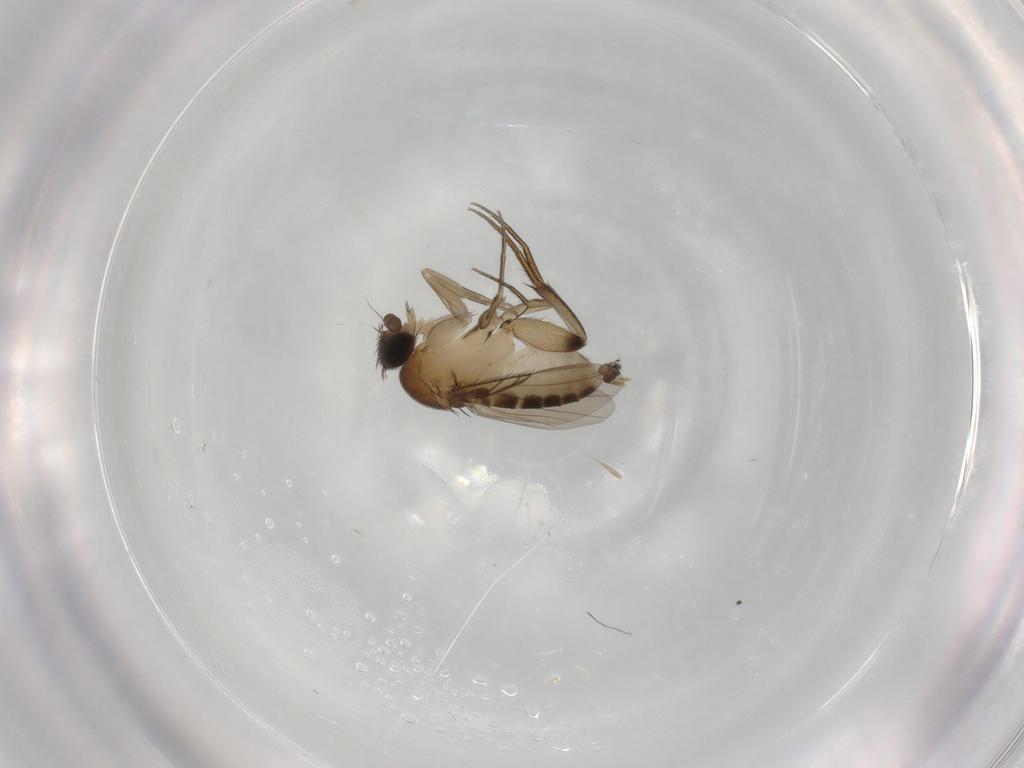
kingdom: Animalia
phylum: Arthropoda
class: Insecta
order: Diptera
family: Phoridae
